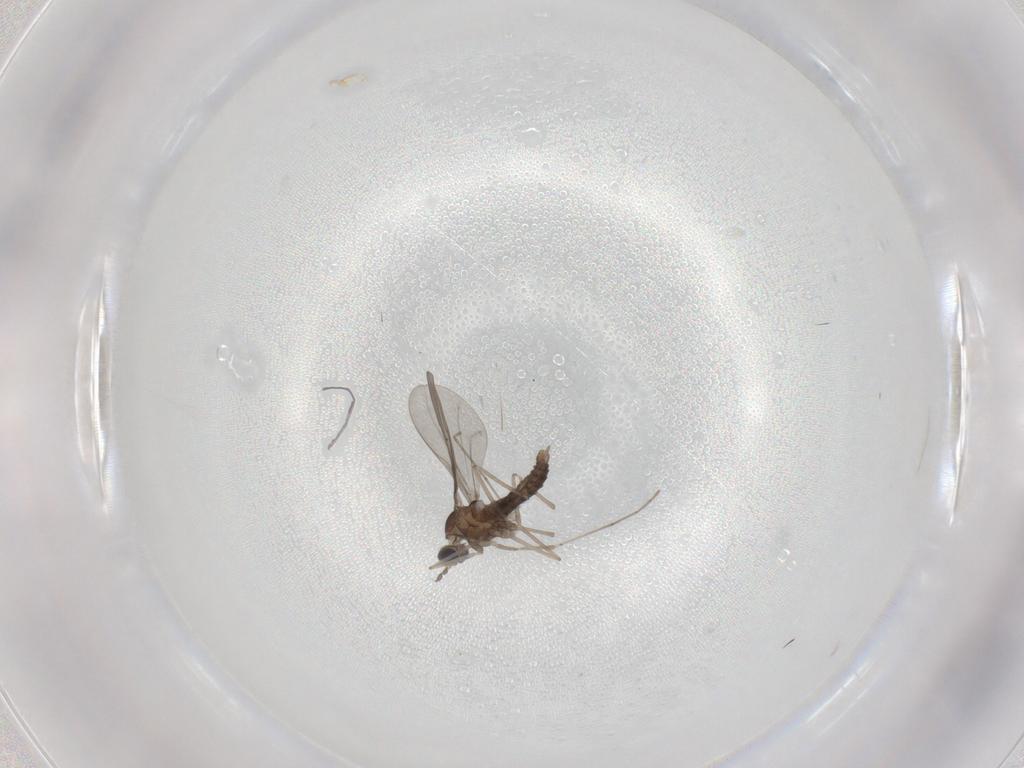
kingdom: Animalia
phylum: Arthropoda
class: Insecta
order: Diptera
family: Cecidomyiidae
